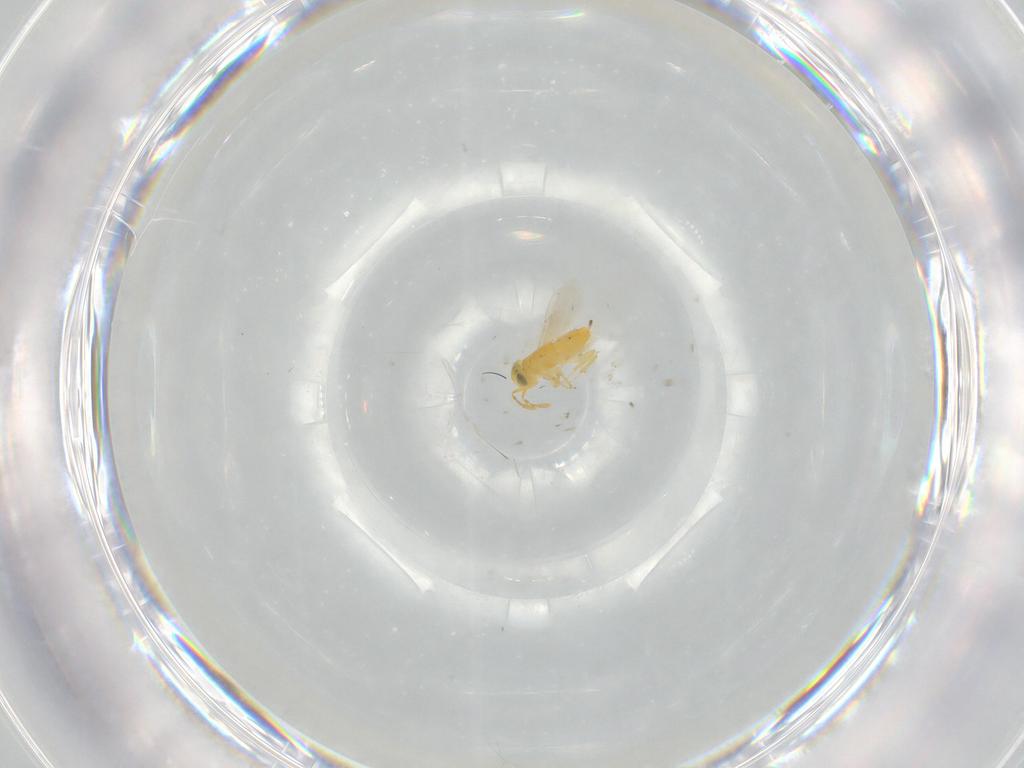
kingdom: Animalia
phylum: Arthropoda
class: Insecta
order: Hymenoptera
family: Encyrtidae
